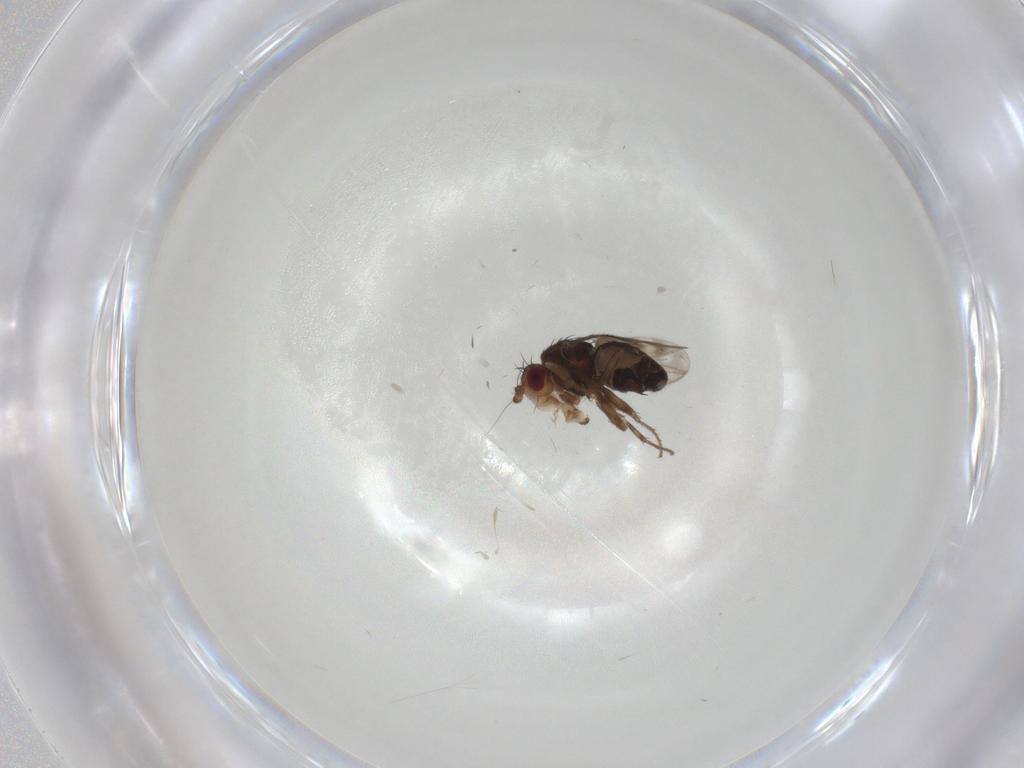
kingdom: Animalia
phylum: Arthropoda
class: Insecta
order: Diptera
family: Sphaeroceridae
